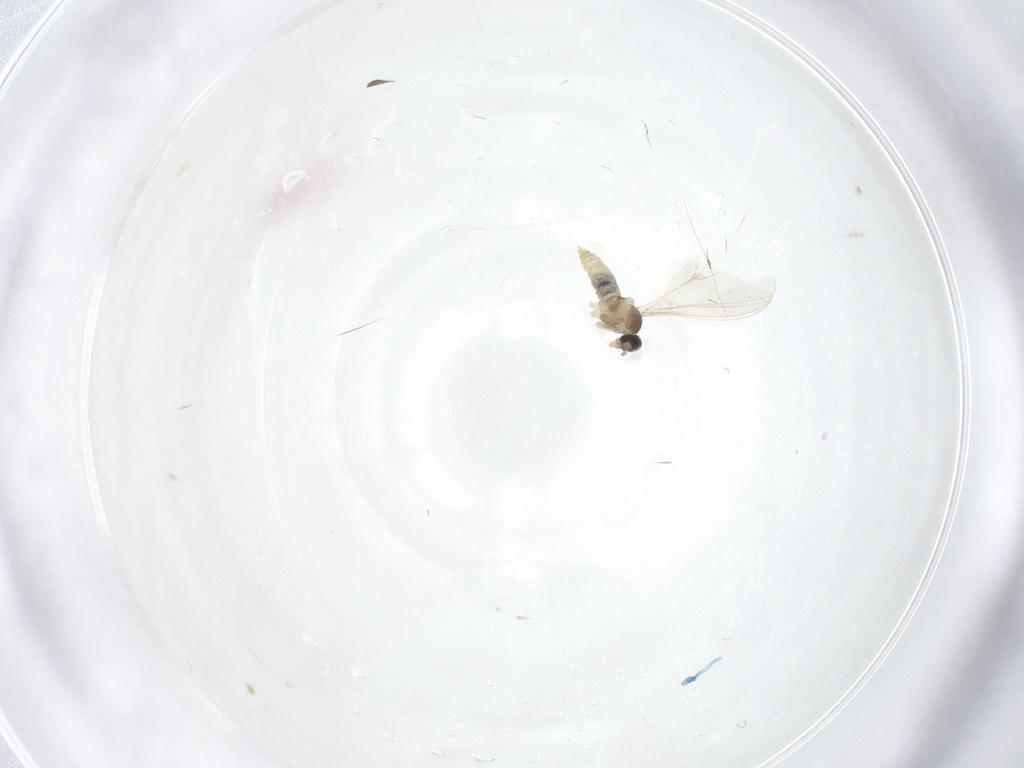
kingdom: Animalia
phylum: Arthropoda
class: Insecta
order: Diptera
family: Cecidomyiidae
